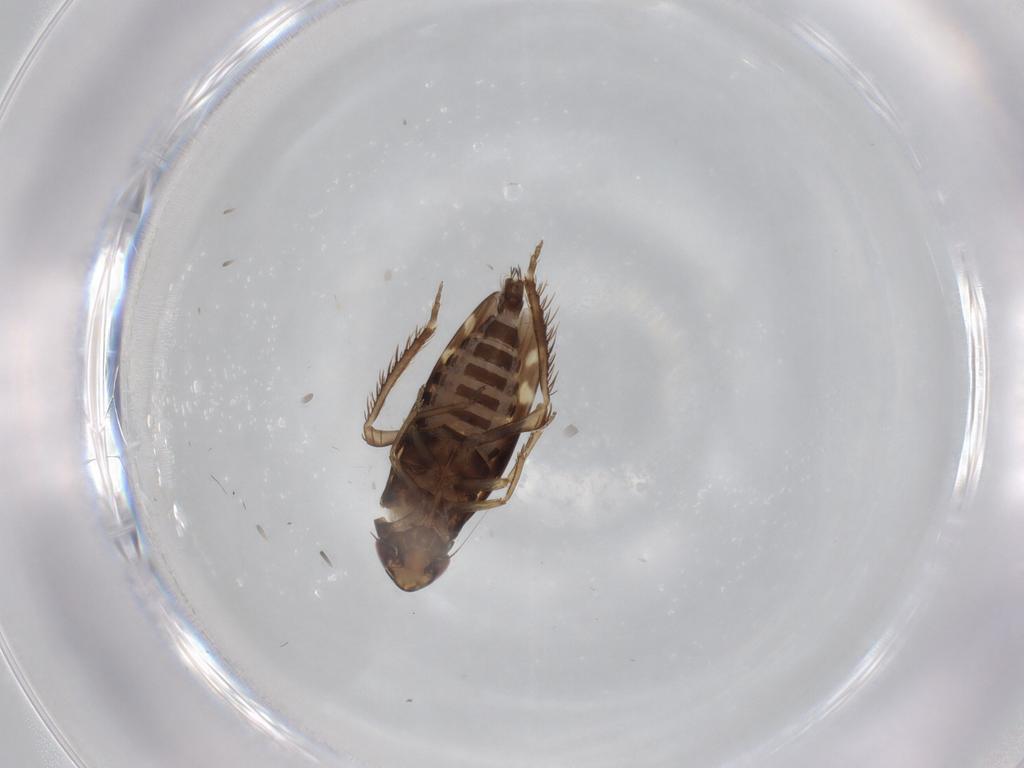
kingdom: Animalia
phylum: Arthropoda
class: Insecta
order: Hemiptera
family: Cicadellidae
